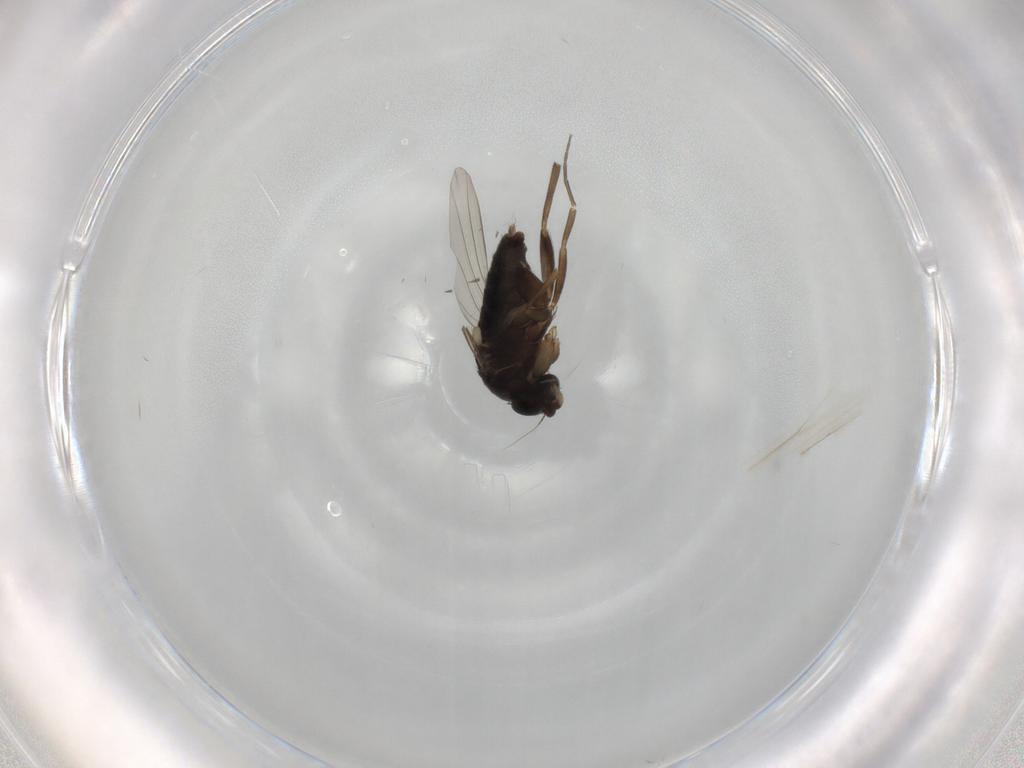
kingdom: Animalia
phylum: Arthropoda
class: Insecta
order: Diptera
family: Phoridae
